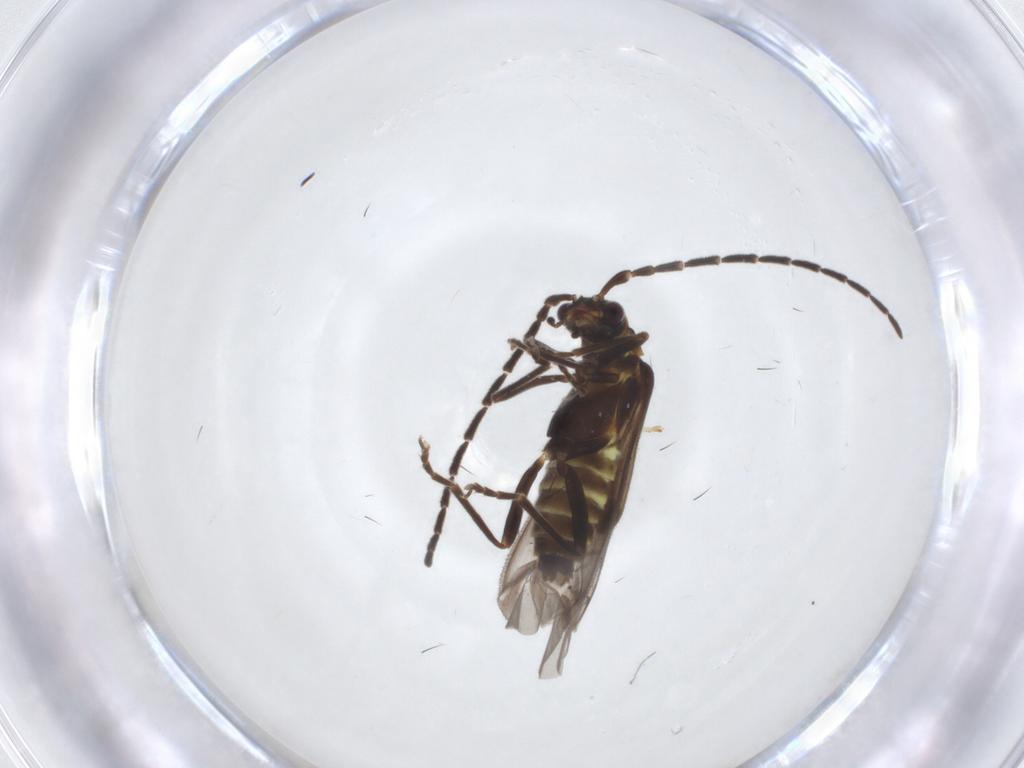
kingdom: Animalia
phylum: Arthropoda
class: Insecta
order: Coleoptera
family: Cantharidae
